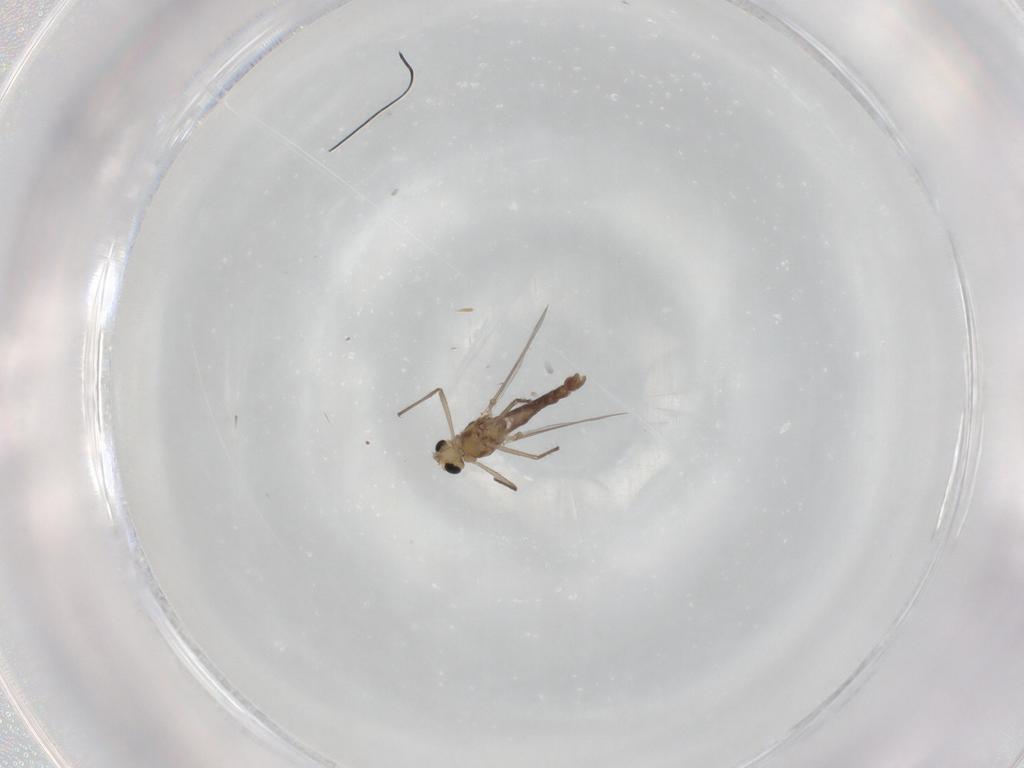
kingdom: Animalia
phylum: Arthropoda
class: Insecta
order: Diptera
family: Chironomidae
